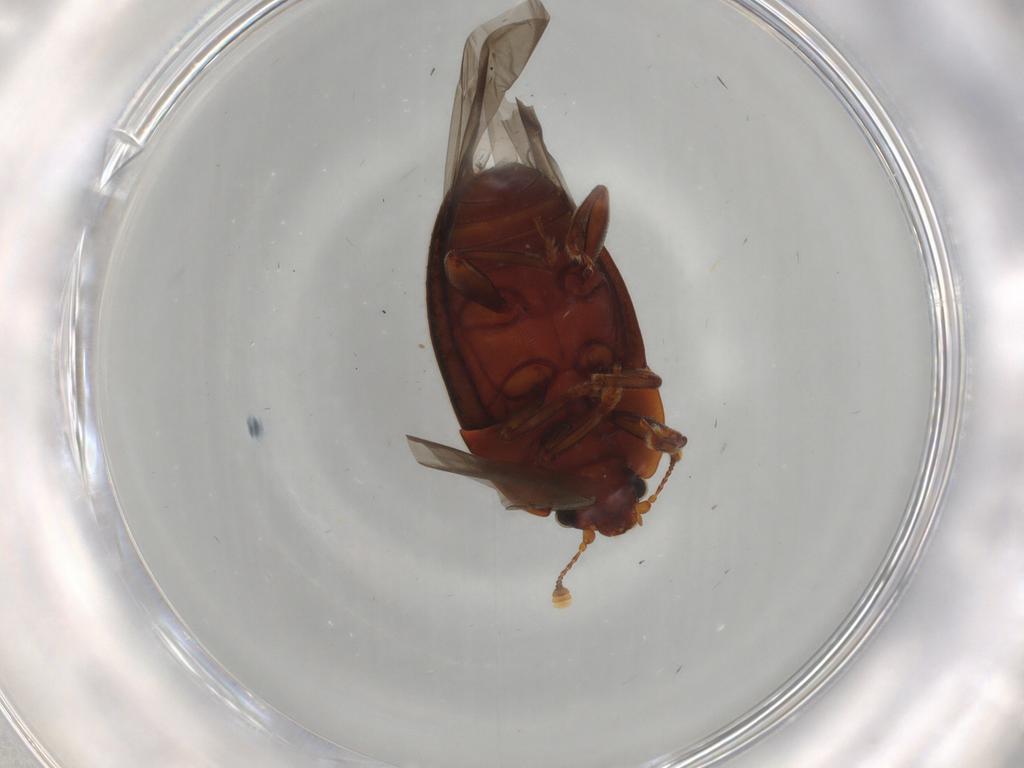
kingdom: Animalia
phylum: Arthropoda
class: Insecta
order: Coleoptera
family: Nitidulidae
